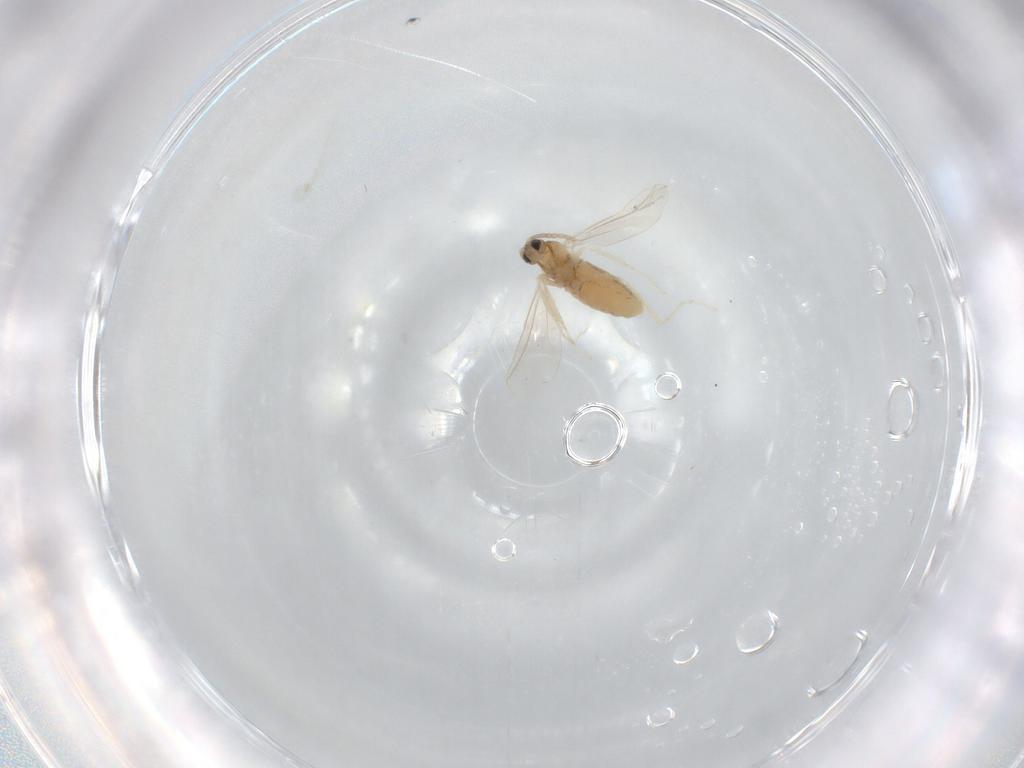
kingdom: Animalia
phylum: Arthropoda
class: Insecta
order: Diptera
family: Cecidomyiidae
